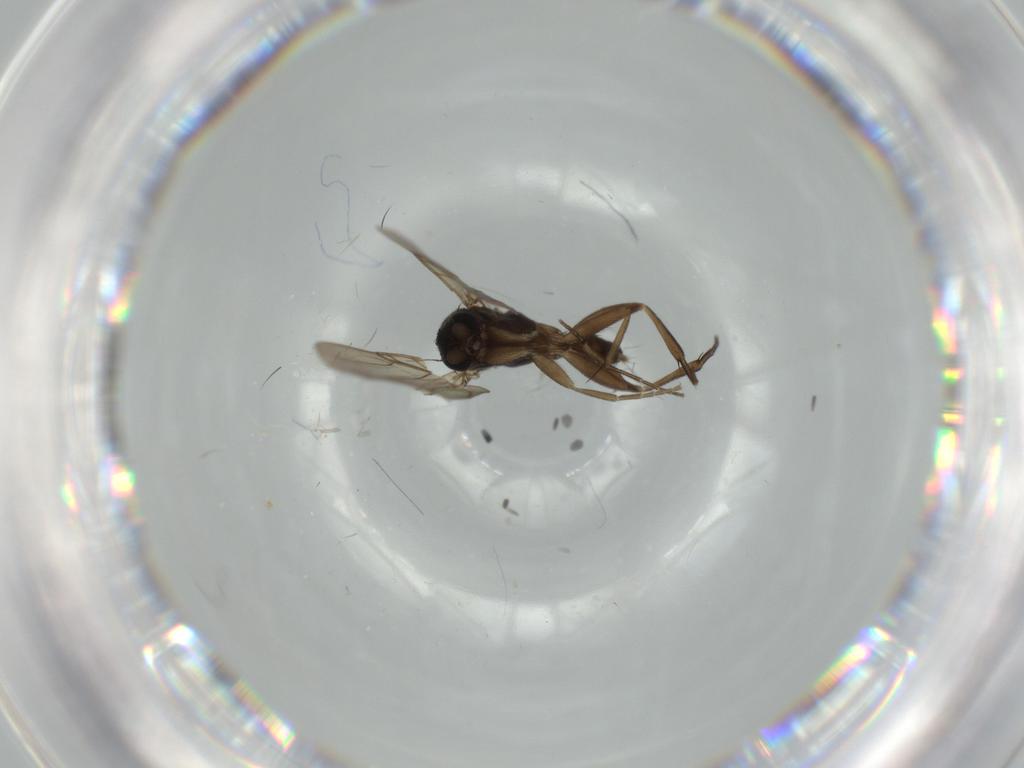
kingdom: Animalia
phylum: Arthropoda
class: Insecta
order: Diptera
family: Phoridae
